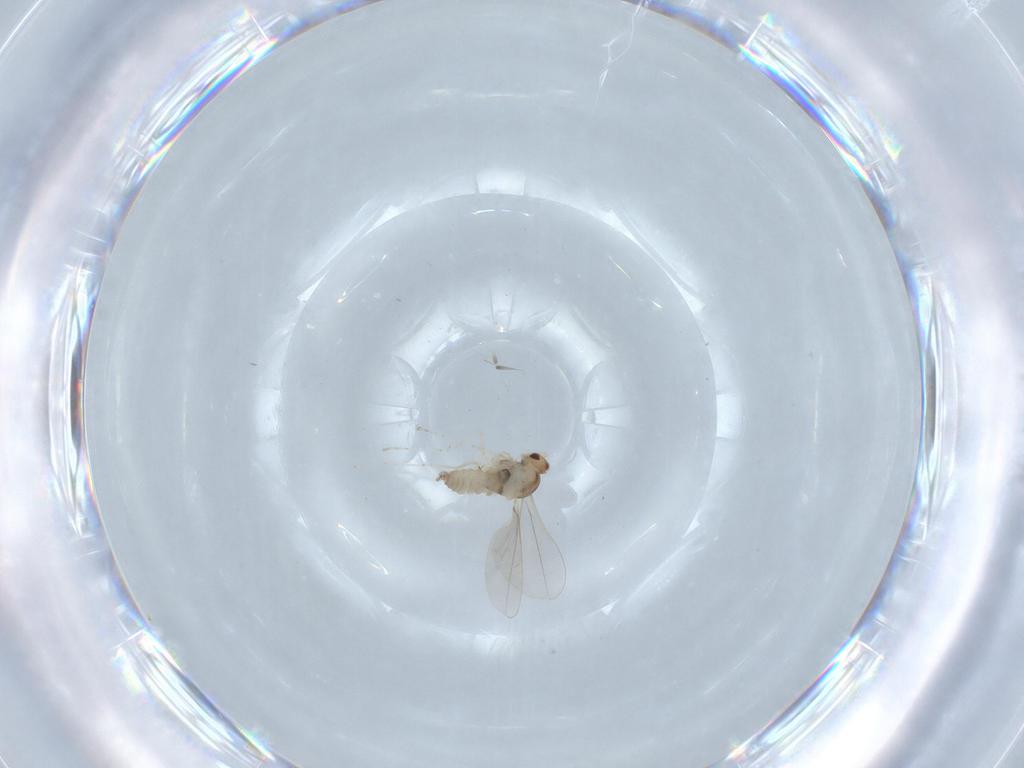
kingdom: Animalia
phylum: Arthropoda
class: Insecta
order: Diptera
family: Cecidomyiidae
